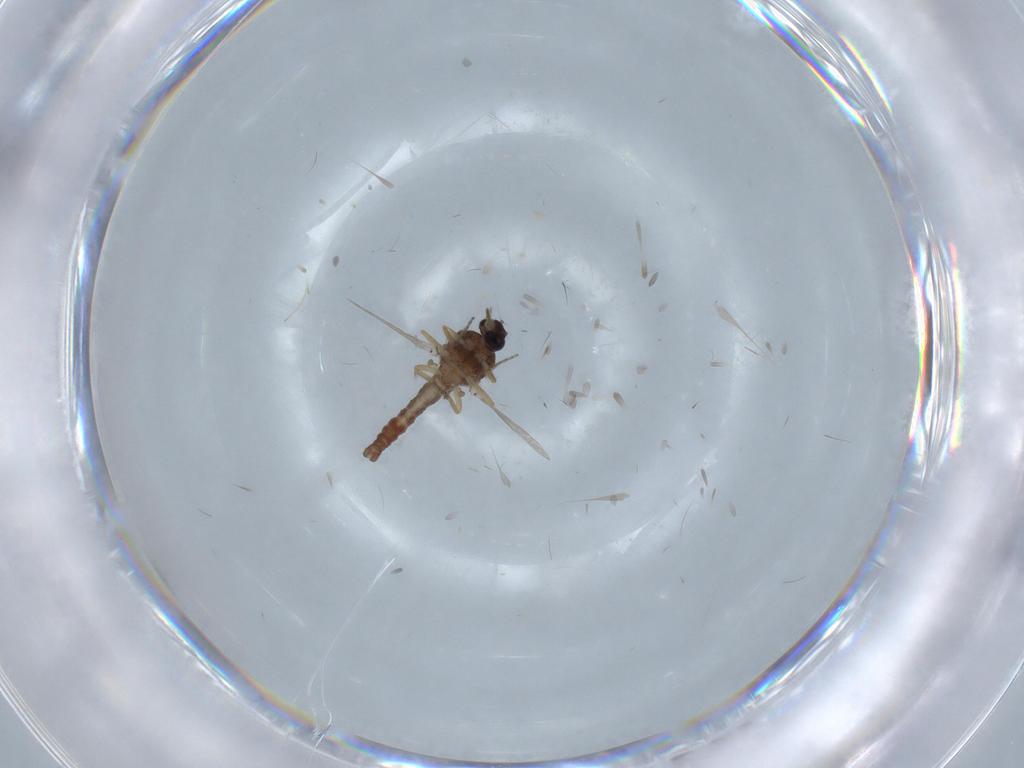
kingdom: Animalia
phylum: Arthropoda
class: Insecta
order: Diptera
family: Ceratopogonidae
